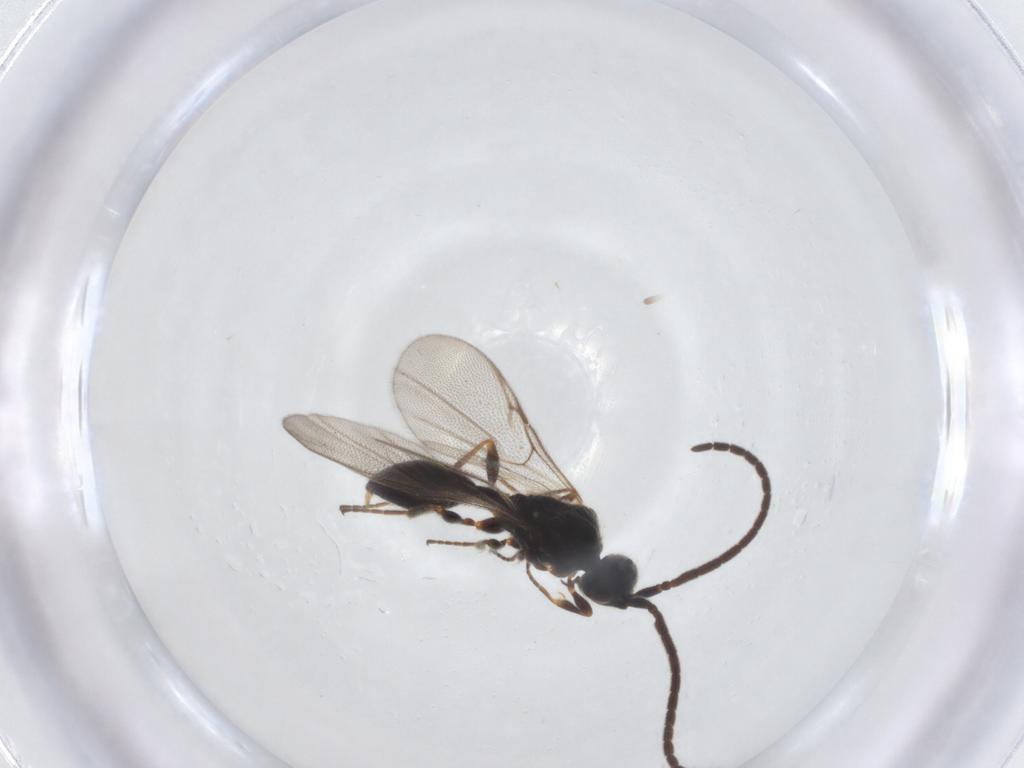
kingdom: Animalia
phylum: Arthropoda
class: Insecta
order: Hymenoptera
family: Diapriidae
